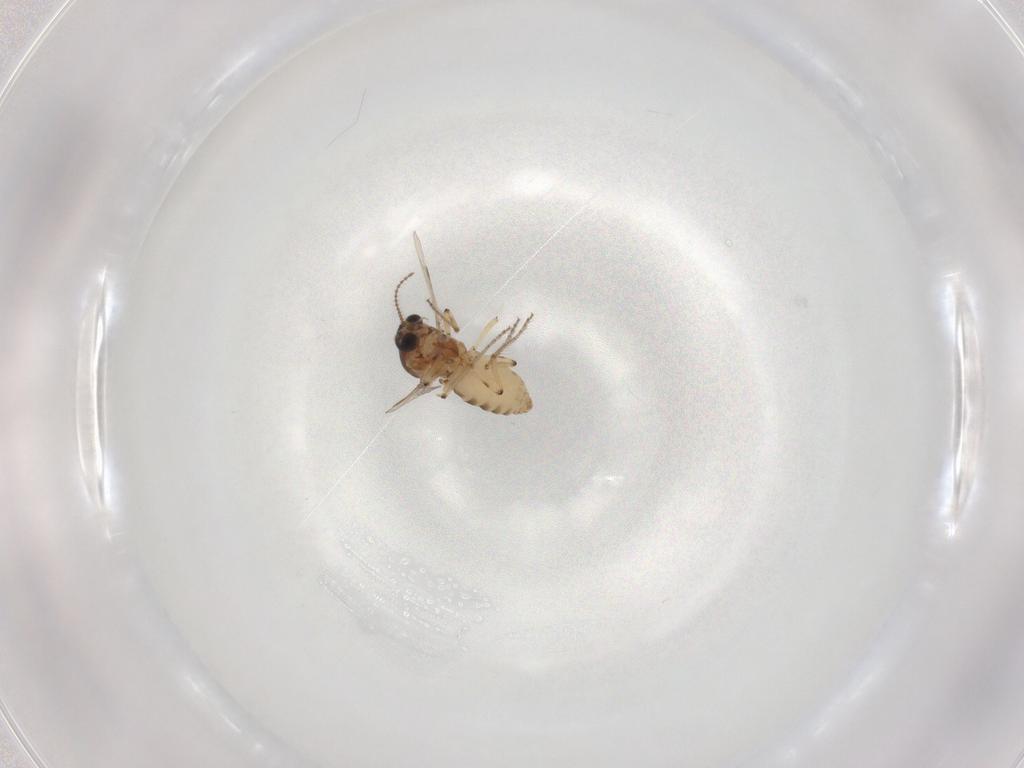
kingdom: Animalia
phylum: Arthropoda
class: Insecta
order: Diptera
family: Ceratopogonidae
